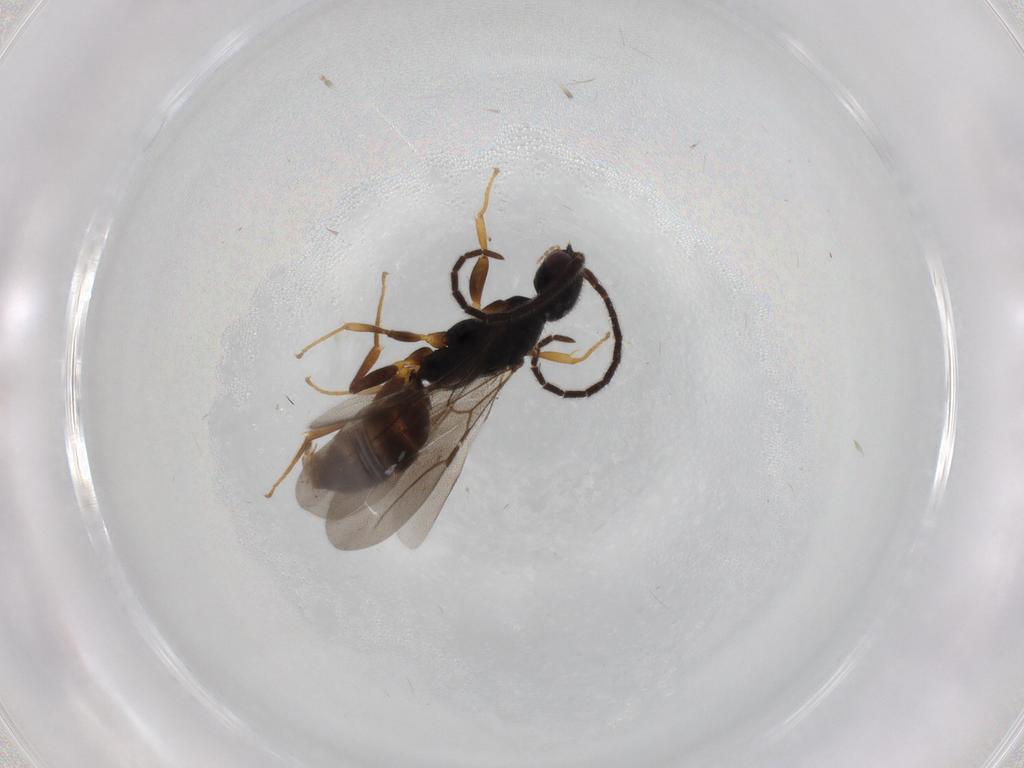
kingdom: Animalia
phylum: Arthropoda
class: Insecta
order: Hymenoptera
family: Bethylidae
